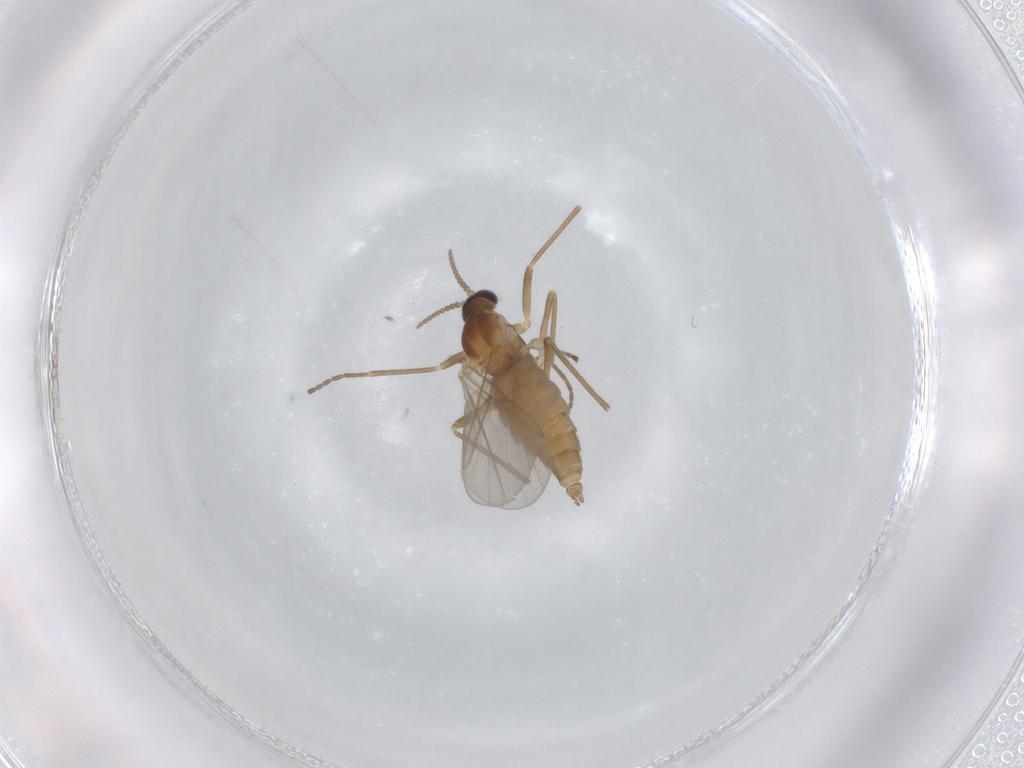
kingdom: Animalia
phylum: Arthropoda
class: Insecta
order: Diptera
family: Cecidomyiidae
